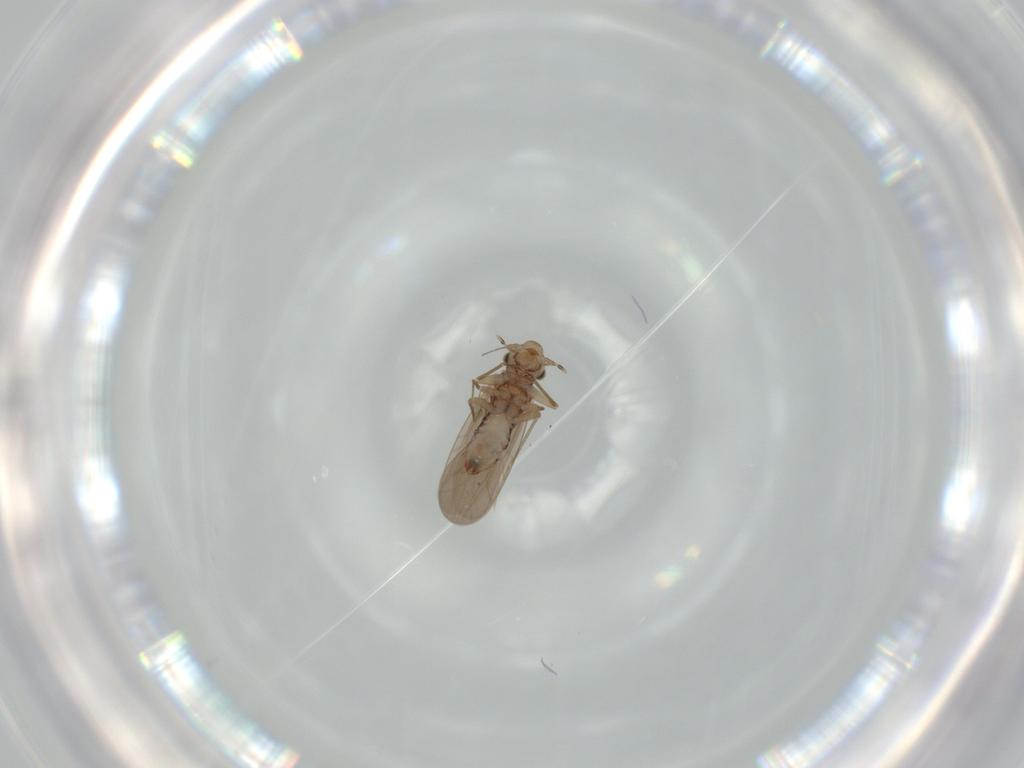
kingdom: Animalia
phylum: Arthropoda
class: Insecta
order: Psocodea
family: Lepidopsocidae
